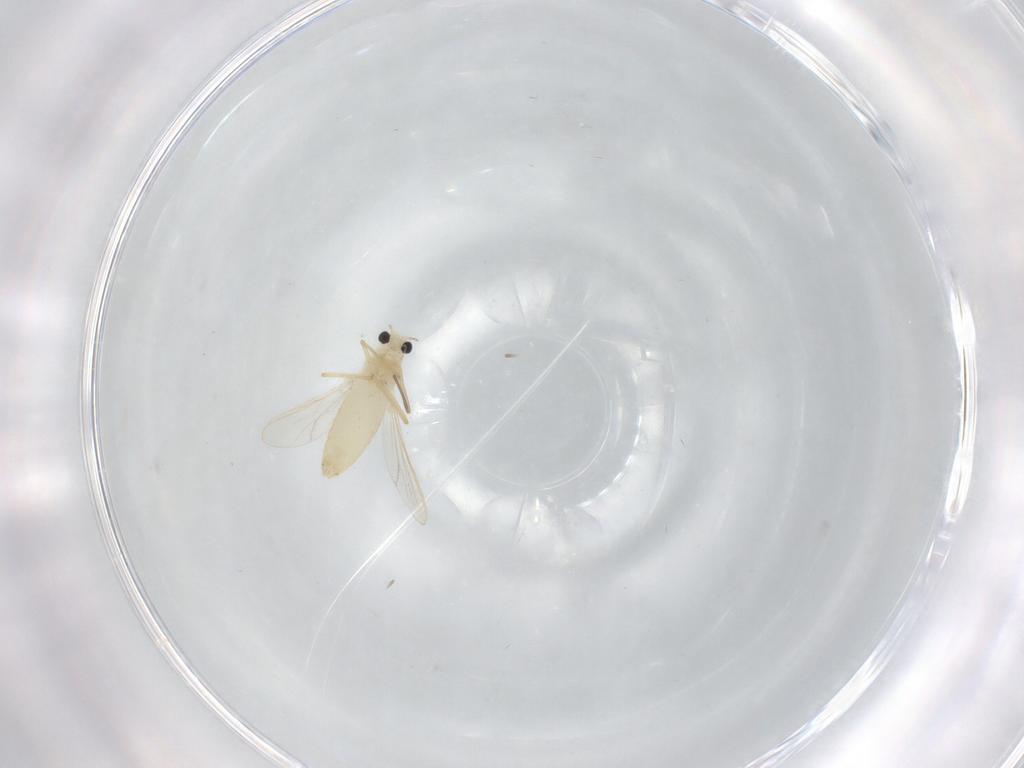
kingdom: Animalia
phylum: Arthropoda
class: Insecta
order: Diptera
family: Chironomidae
